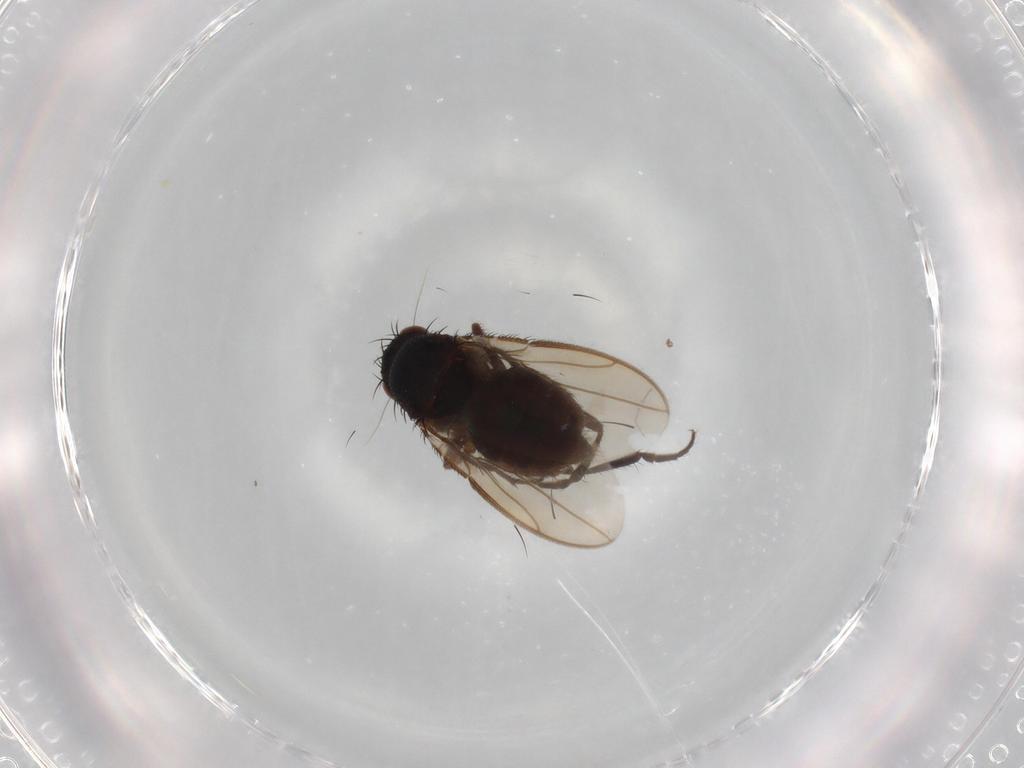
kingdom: Animalia
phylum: Arthropoda
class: Insecta
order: Diptera
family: Sphaeroceridae
